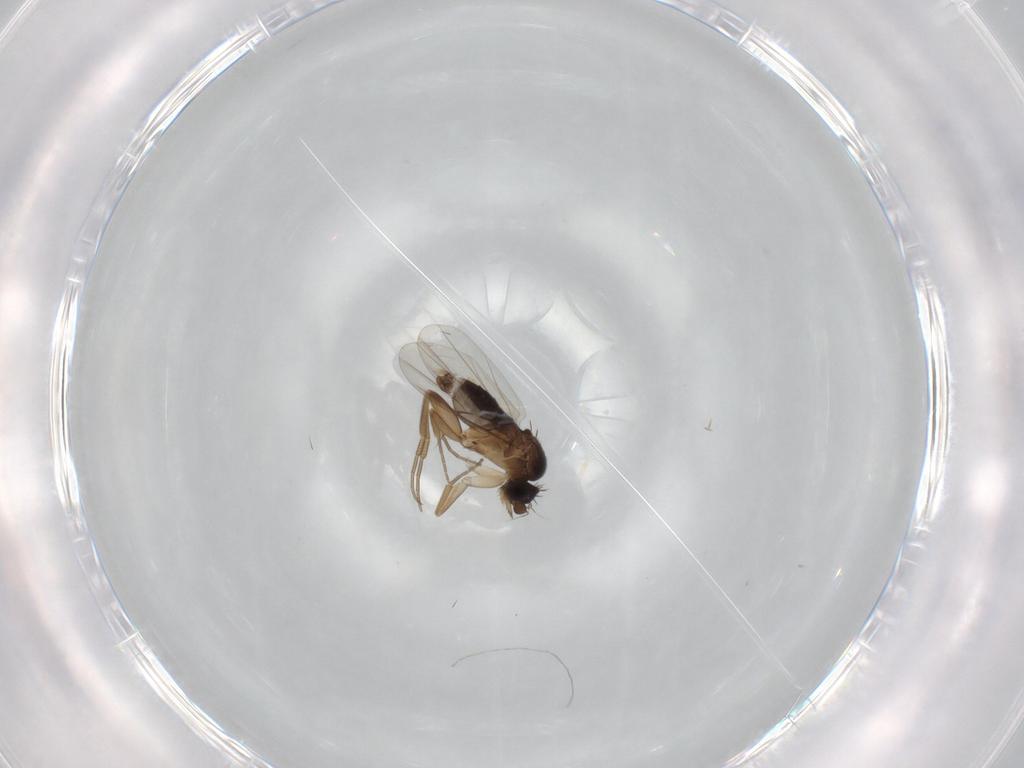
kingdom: Animalia
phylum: Arthropoda
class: Insecta
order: Diptera
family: Phoridae
